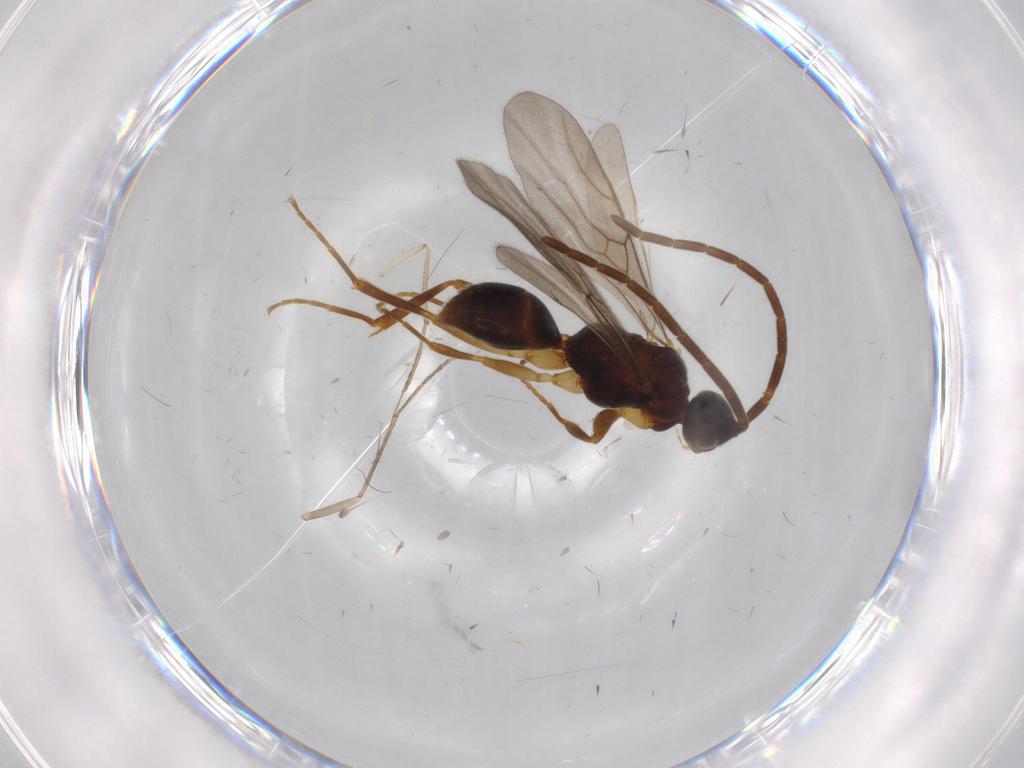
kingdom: Animalia
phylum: Arthropoda
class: Insecta
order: Hymenoptera
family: Embolemidae
